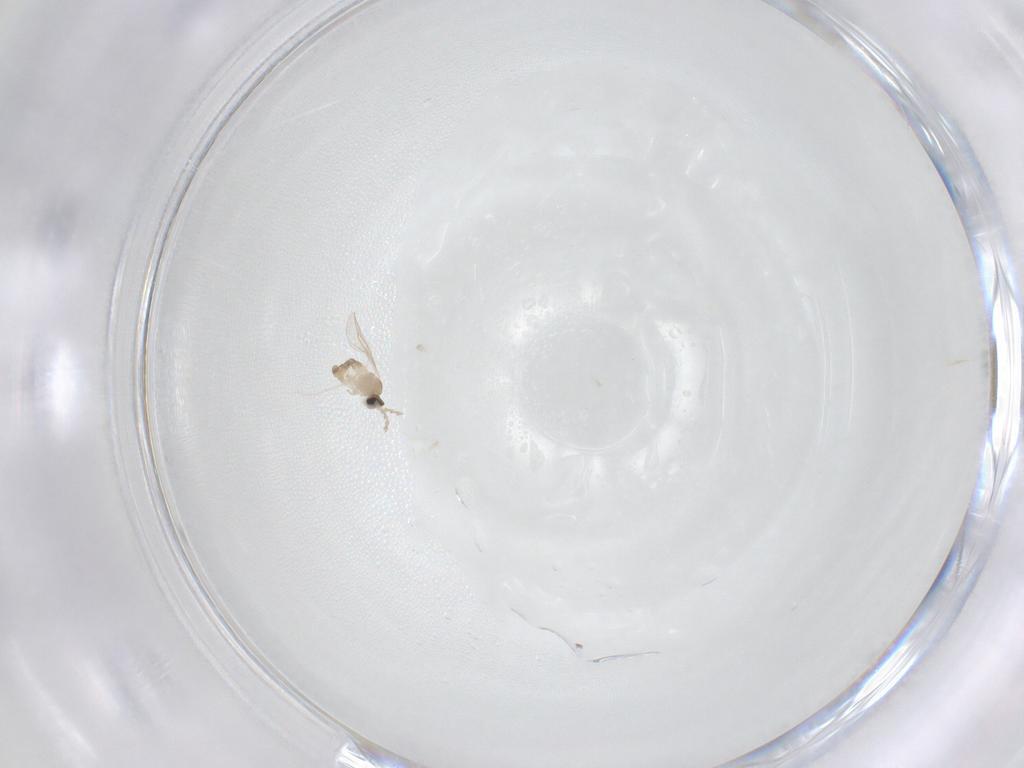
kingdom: Animalia
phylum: Arthropoda
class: Insecta
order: Diptera
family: Cecidomyiidae
